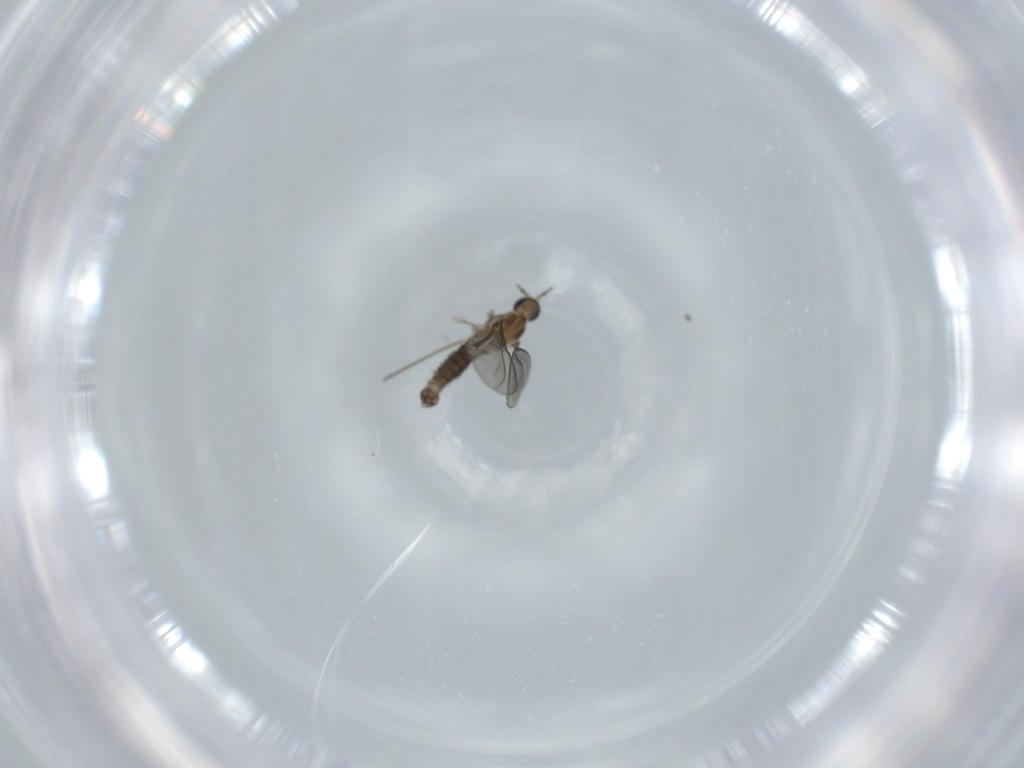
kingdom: Animalia
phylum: Arthropoda
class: Insecta
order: Diptera
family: Cecidomyiidae
